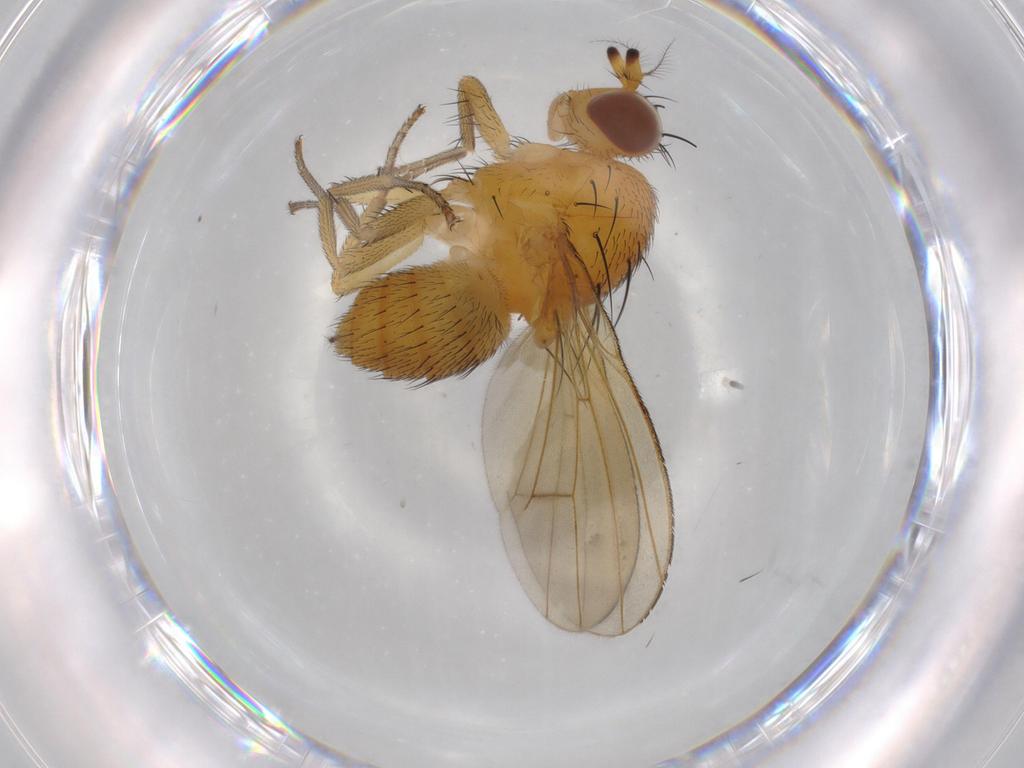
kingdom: Animalia
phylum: Arthropoda
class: Insecta
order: Diptera
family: Lauxaniidae
